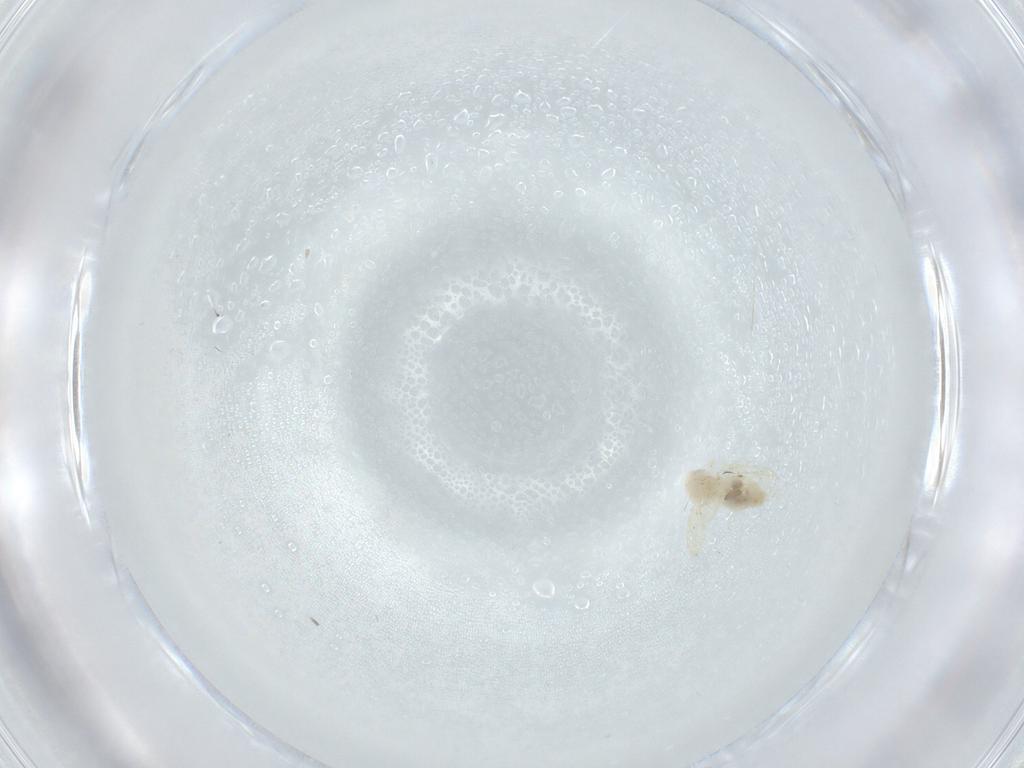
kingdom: Animalia
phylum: Arthropoda
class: Insecta
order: Hemiptera
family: Aleyrodidae
